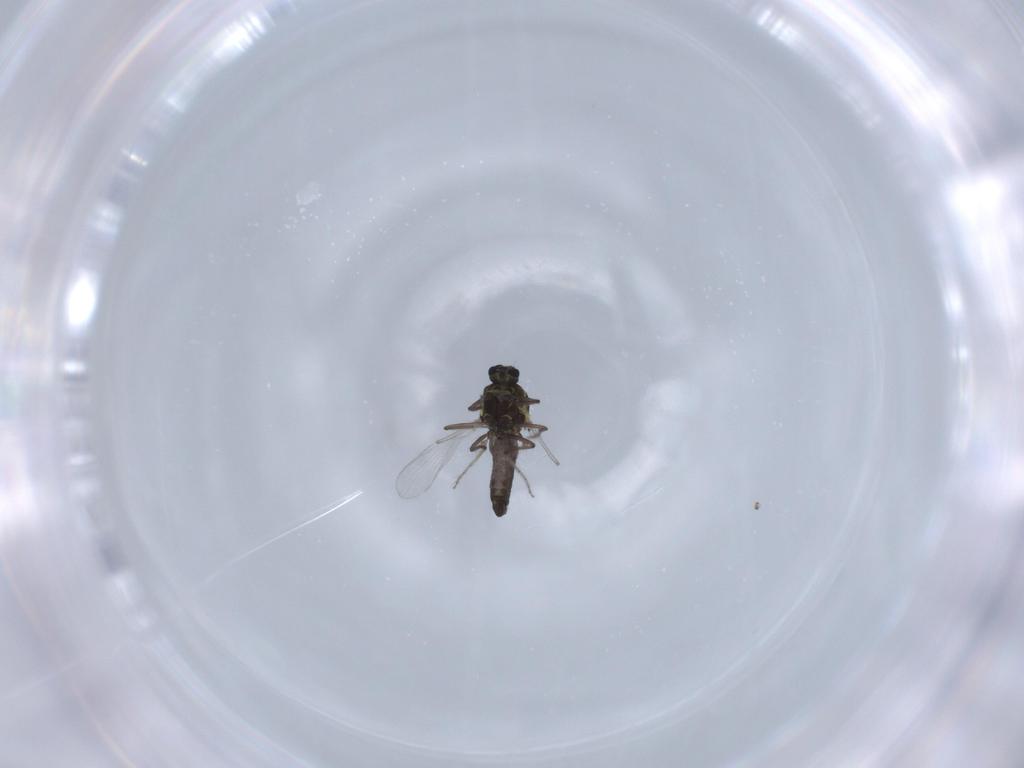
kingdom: Animalia
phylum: Arthropoda
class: Insecta
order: Diptera
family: Ceratopogonidae
